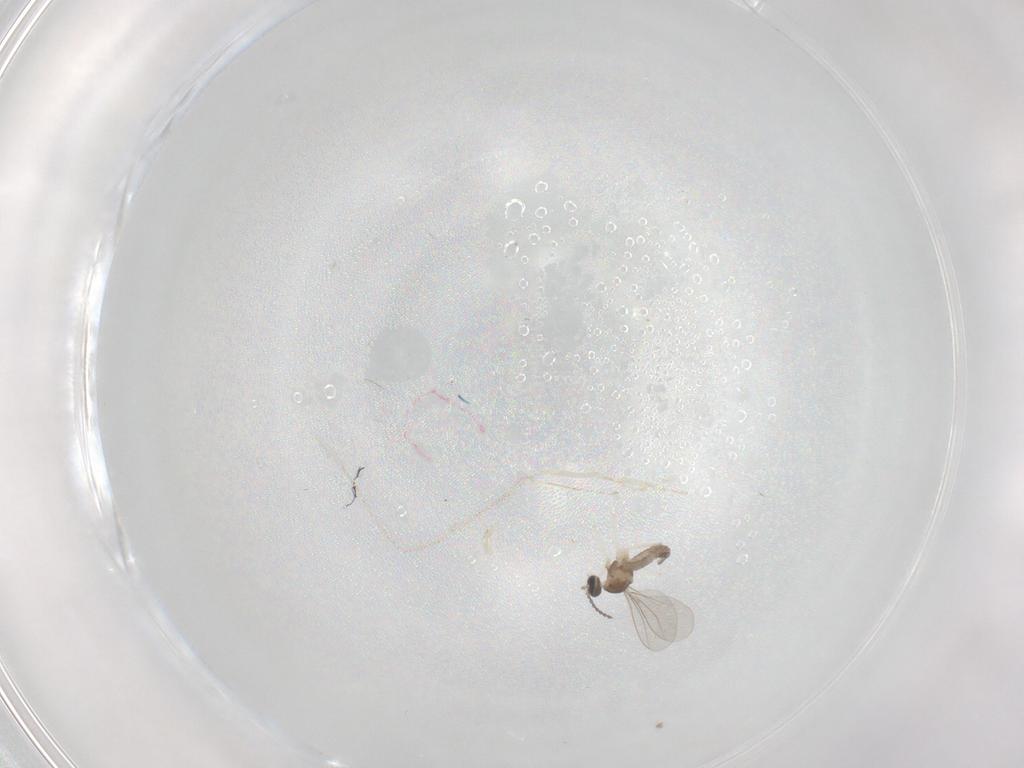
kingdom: Animalia
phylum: Arthropoda
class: Insecta
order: Diptera
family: Cecidomyiidae
